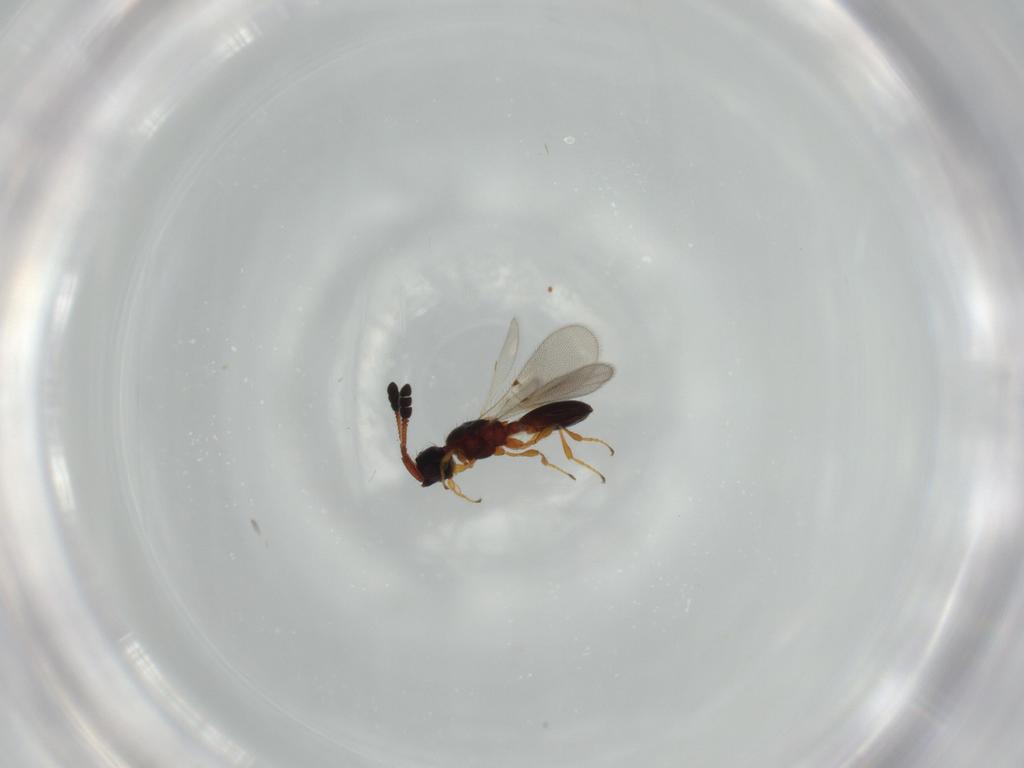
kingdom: Animalia
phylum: Arthropoda
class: Insecta
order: Hymenoptera
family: Diapriidae
